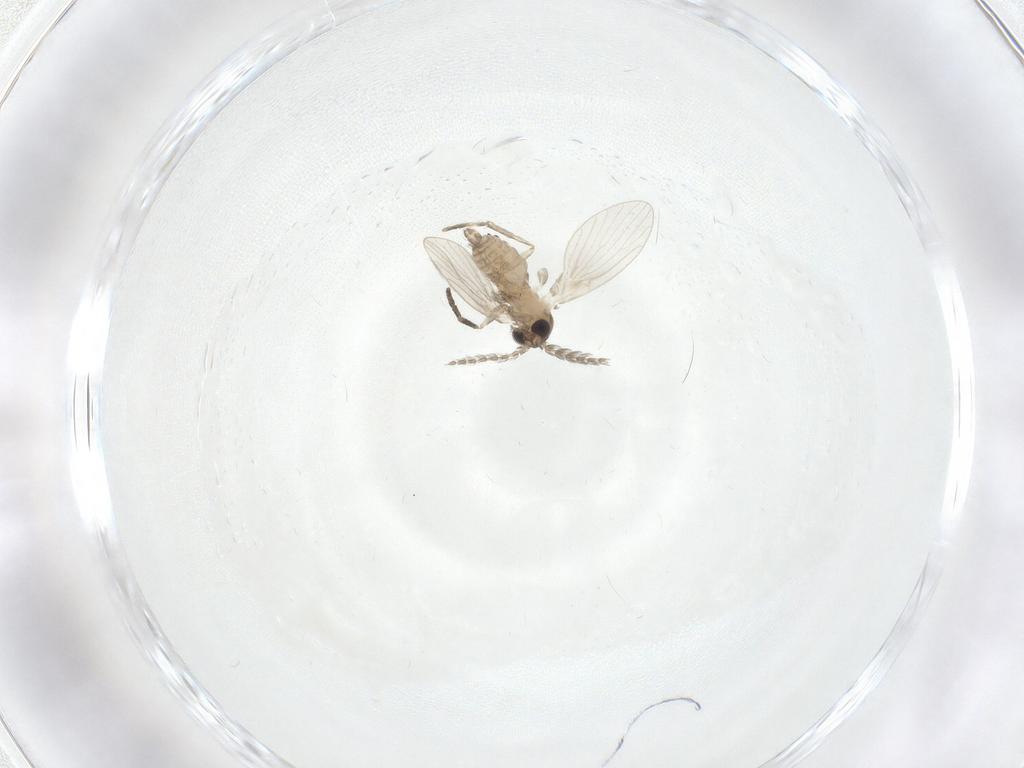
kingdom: Animalia
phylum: Arthropoda
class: Insecta
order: Diptera
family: Psychodidae
